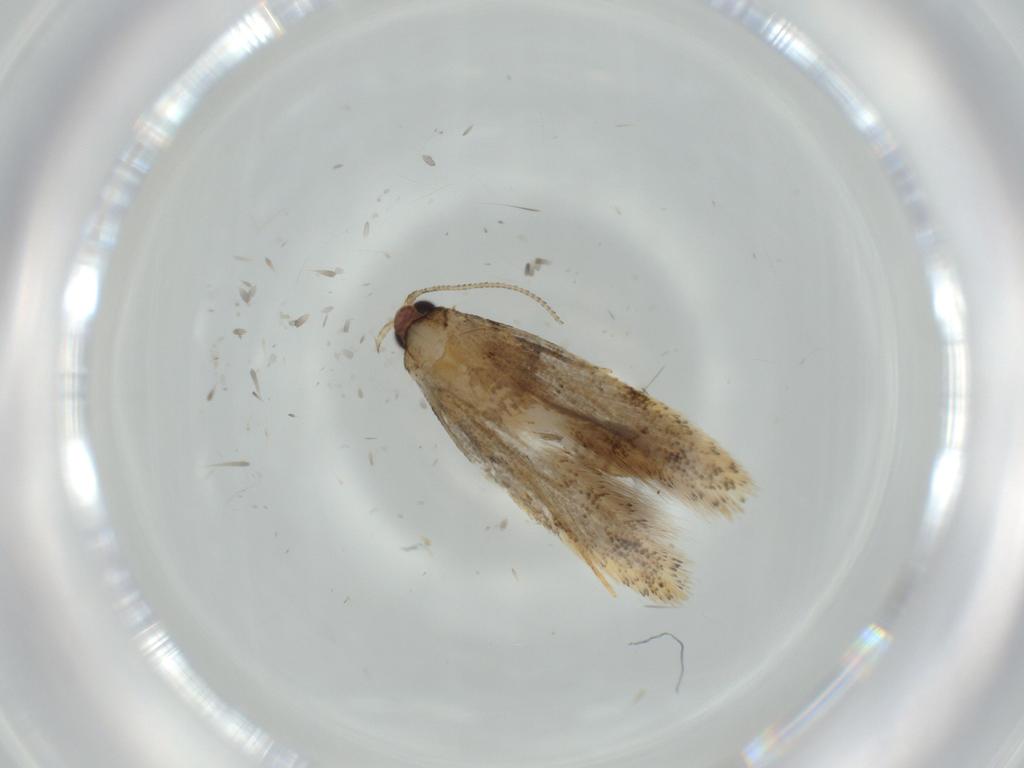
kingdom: Animalia
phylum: Arthropoda
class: Insecta
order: Lepidoptera
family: Tineidae
